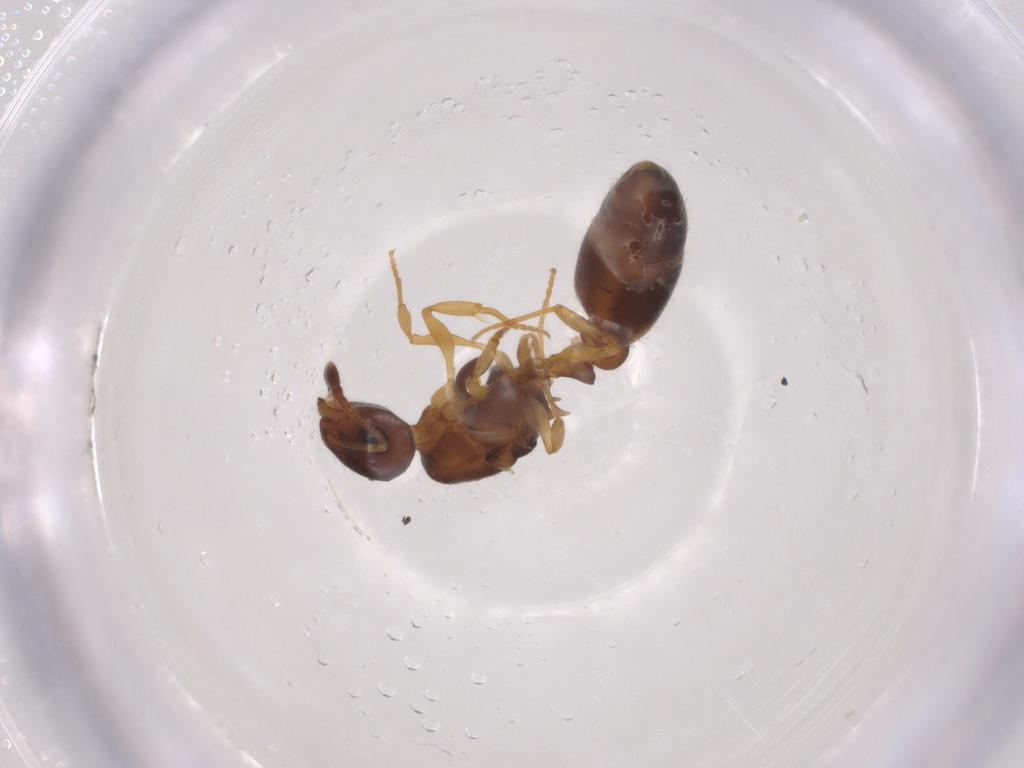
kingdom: Animalia
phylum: Arthropoda
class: Insecta
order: Hymenoptera
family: Formicidae
